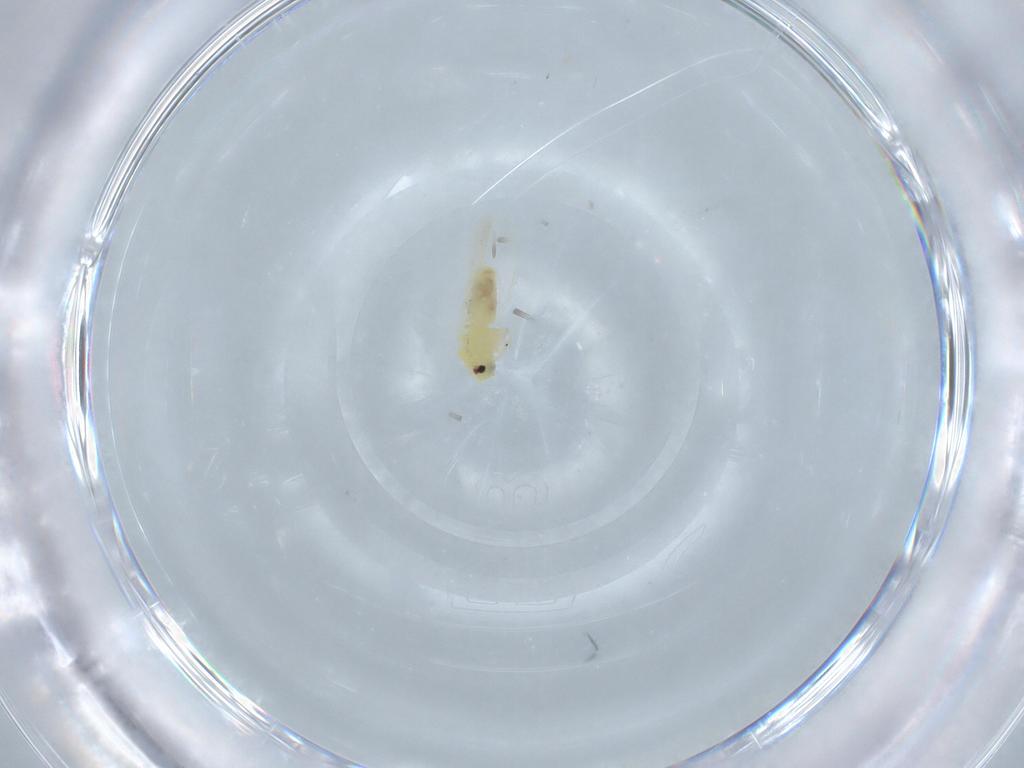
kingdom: Animalia
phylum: Arthropoda
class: Insecta
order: Hemiptera
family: Aleyrodidae
